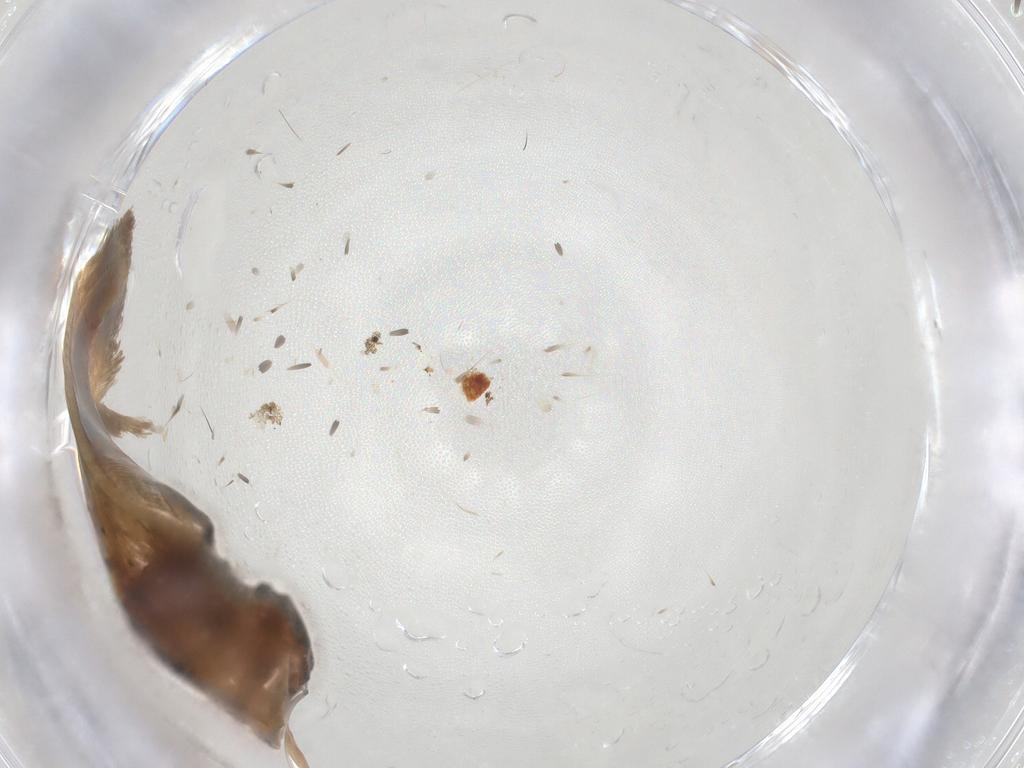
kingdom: Animalia
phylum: Arthropoda
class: Insecta
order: Lepidoptera
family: Lecithoceridae
